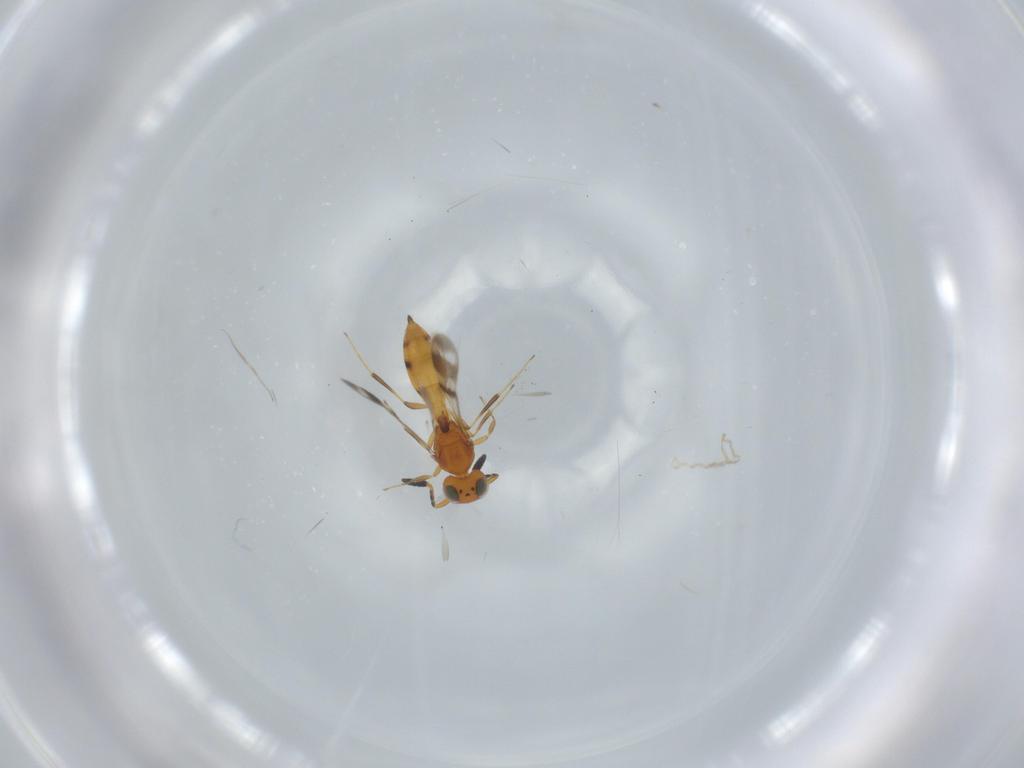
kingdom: Animalia
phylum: Arthropoda
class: Insecta
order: Hymenoptera
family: Scelionidae
